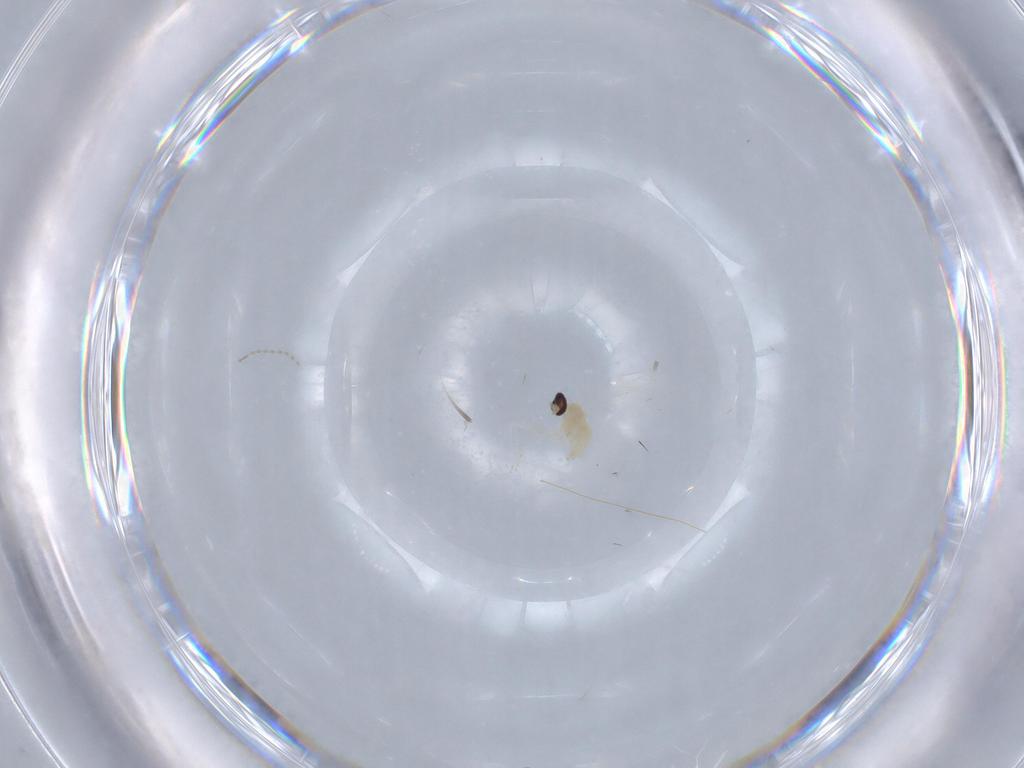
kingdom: Animalia
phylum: Arthropoda
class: Insecta
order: Diptera
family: Cecidomyiidae
